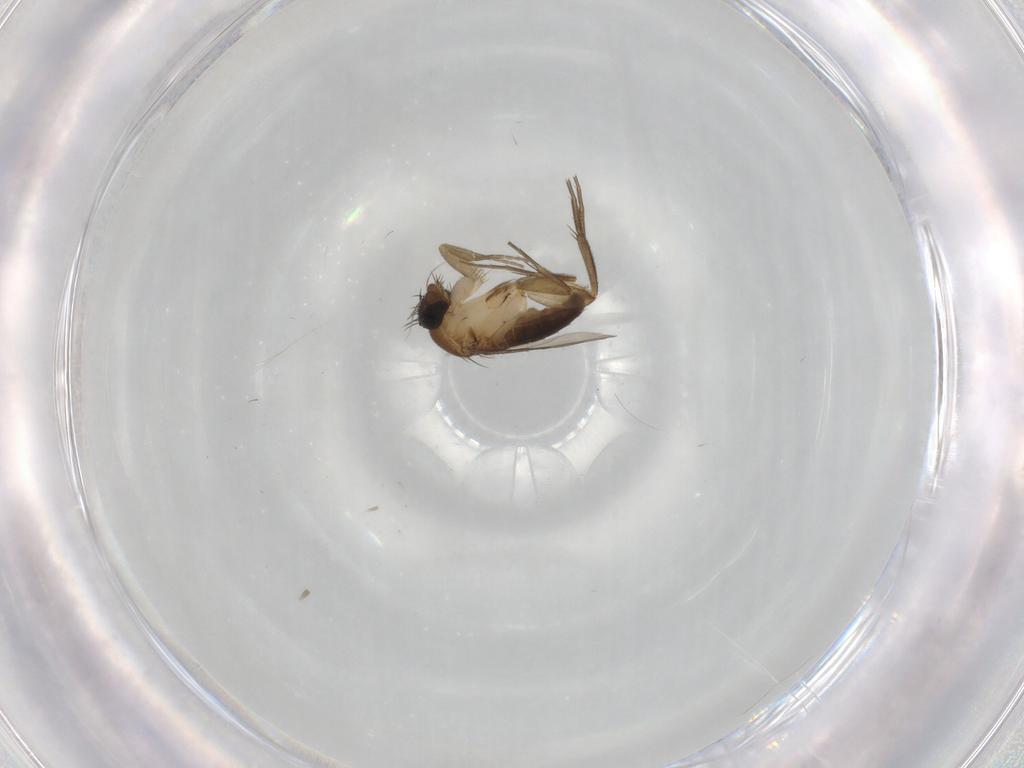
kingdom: Animalia
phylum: Arthropoda
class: Insecta
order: Diptera
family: Phoridae
